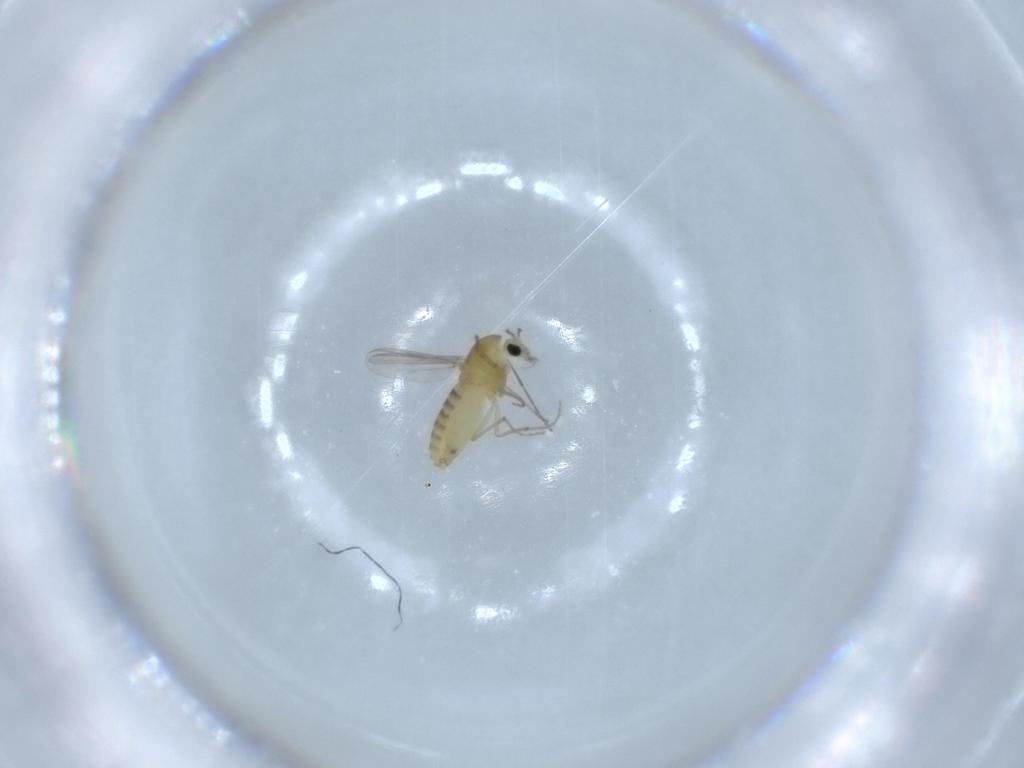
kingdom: Animalia
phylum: Arthropoda
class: Insecta
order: Diptera
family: Chironomidae
